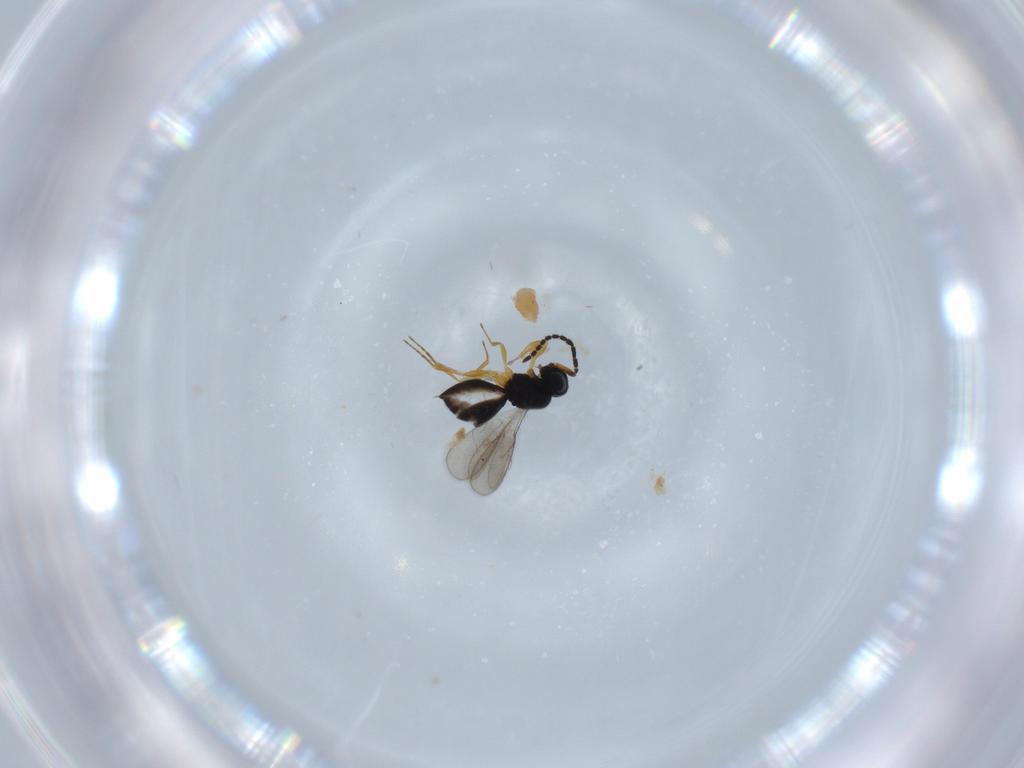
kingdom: Animalia
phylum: Arthropoda
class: Insecta
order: Hymenoptera
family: Scelionidae
